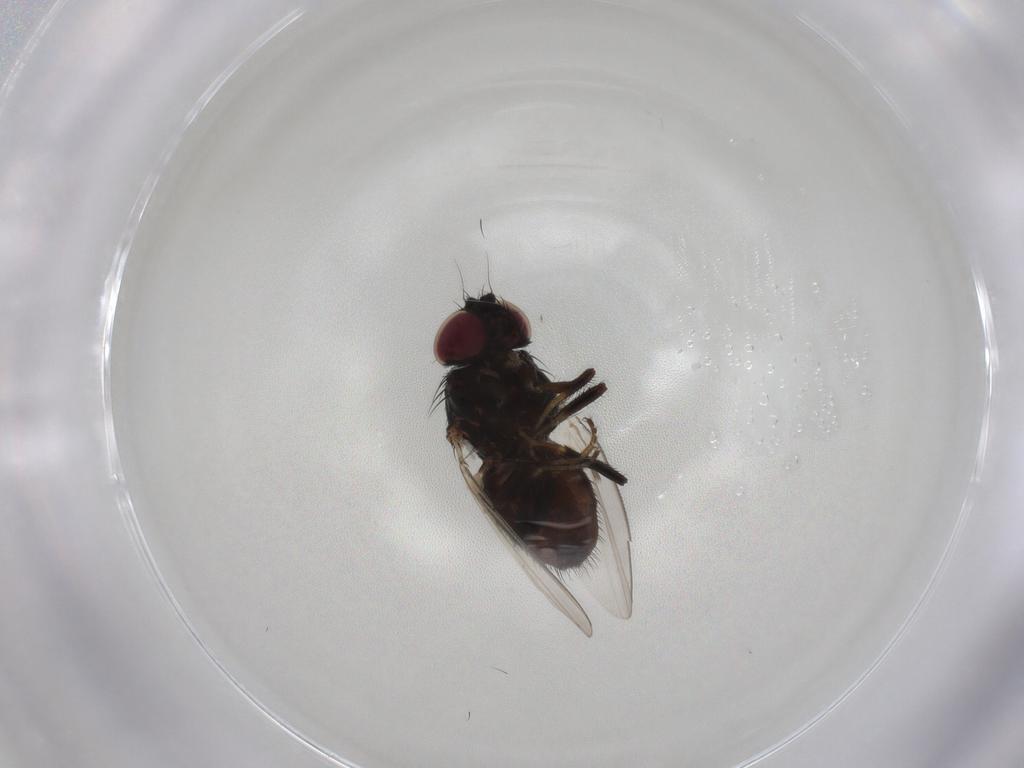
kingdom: Animalia
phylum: Arthropoda
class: Insecta
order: Diptera
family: Milichiidae
